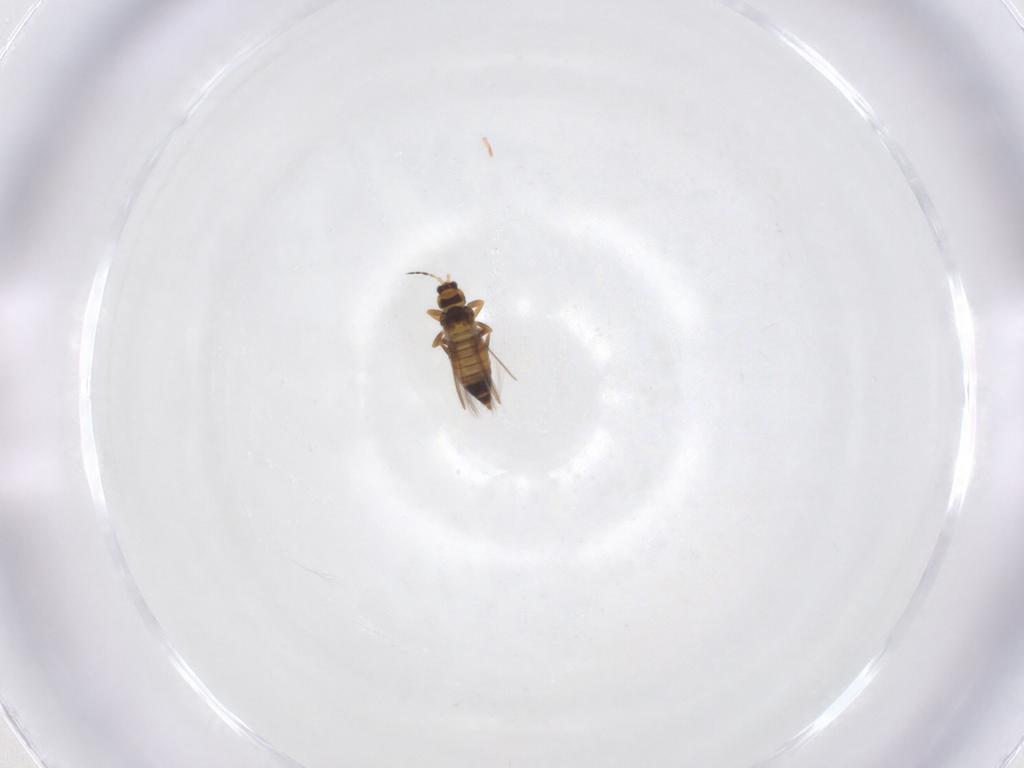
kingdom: Animalia
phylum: Arthropoda
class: Insecta
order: Thysanoptera
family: Thripidae
